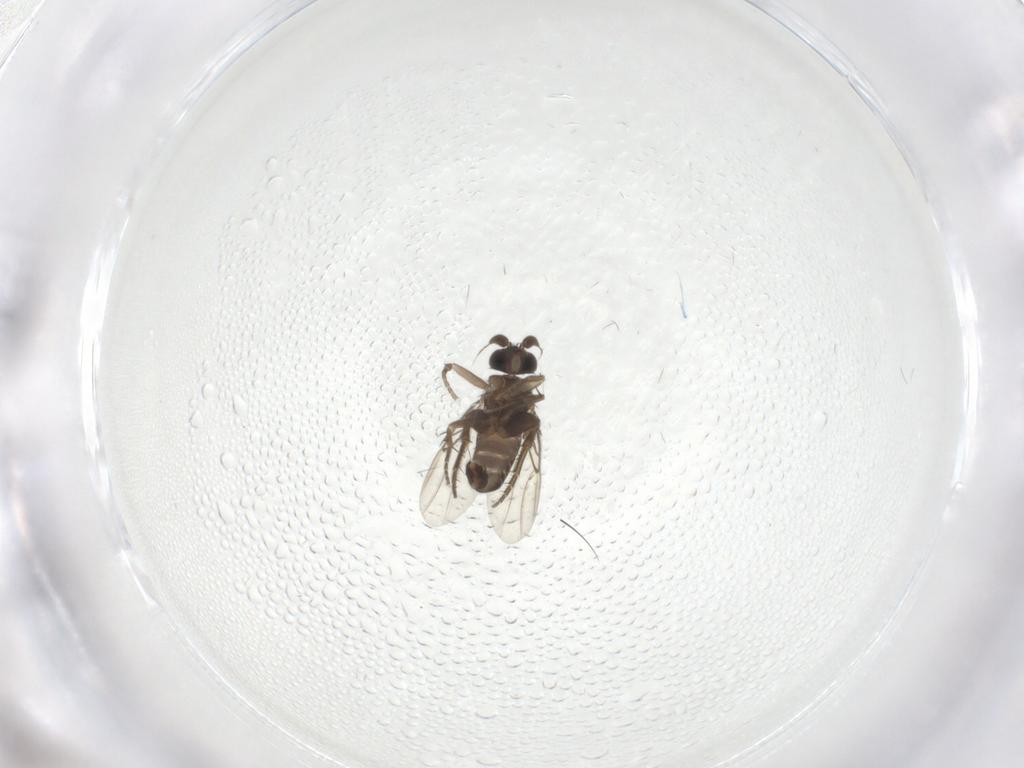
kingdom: Animalia
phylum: Arthropoda
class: Insecta
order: Diptera
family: Phoridae
